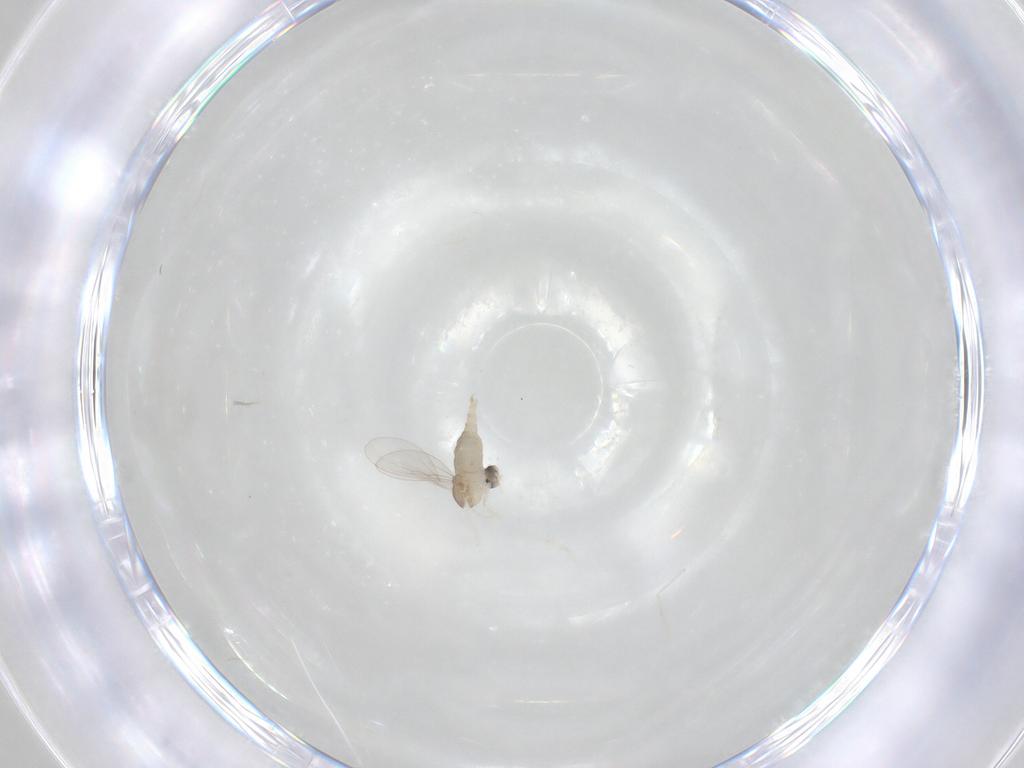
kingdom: Animalia
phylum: Arthropoda
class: Insecta
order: Diptera
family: Cecidomyiidae
